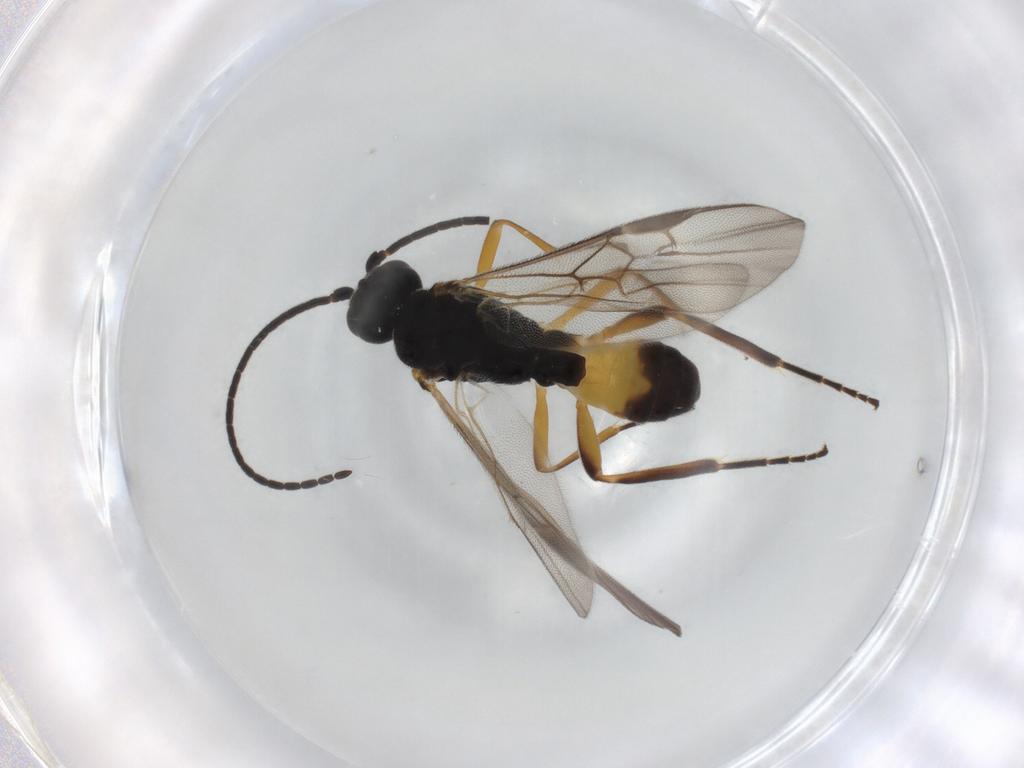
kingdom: Animalia
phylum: Arthropoda
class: Insecta
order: Hymenoptera
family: Braconidae
